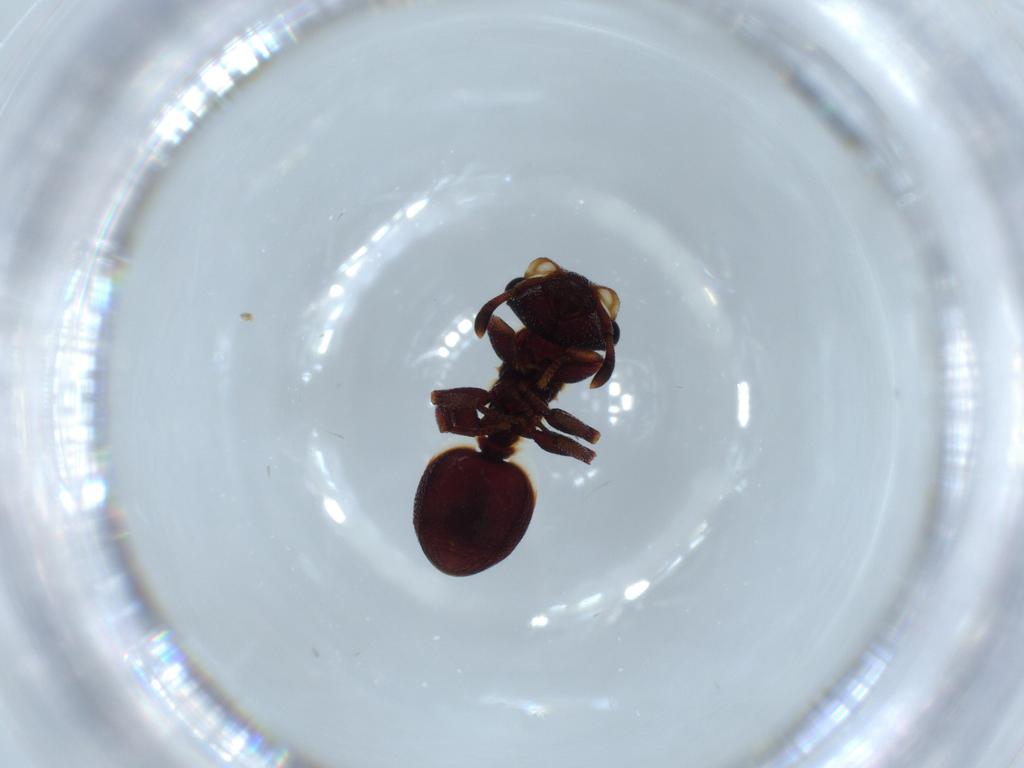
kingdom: Animalia
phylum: Arthropoda
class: Insecta
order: Hymenoptera
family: Formicidae
